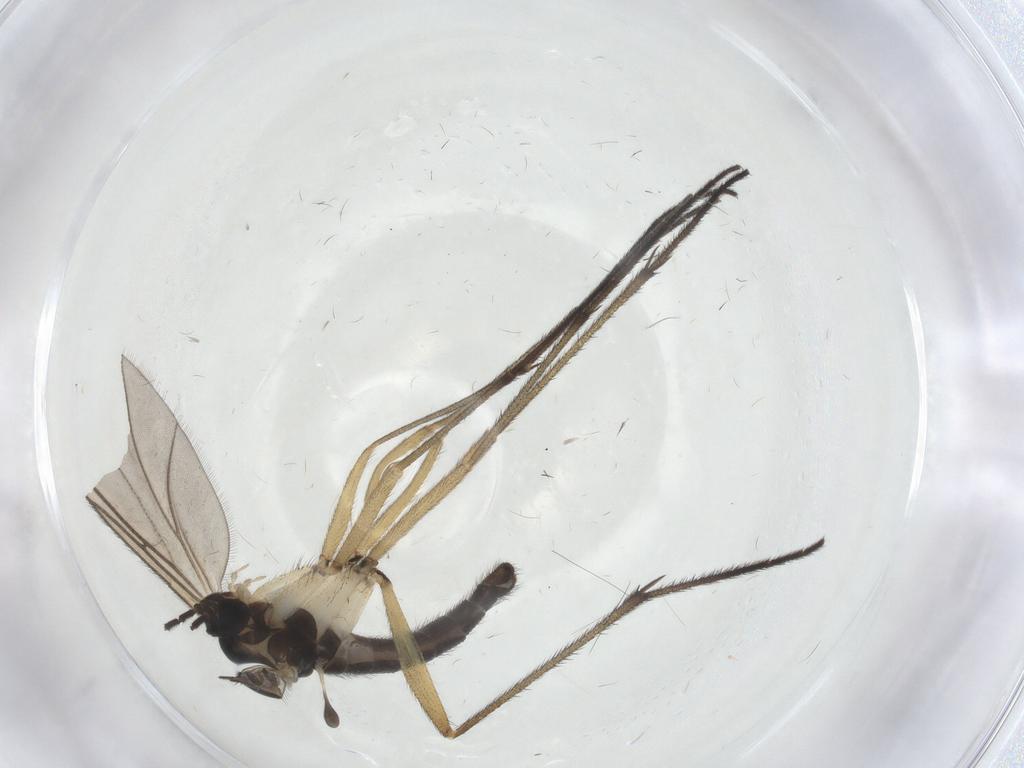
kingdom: Animalia
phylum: Arthropoda
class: Insecta
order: Diptera
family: Sciaridae
